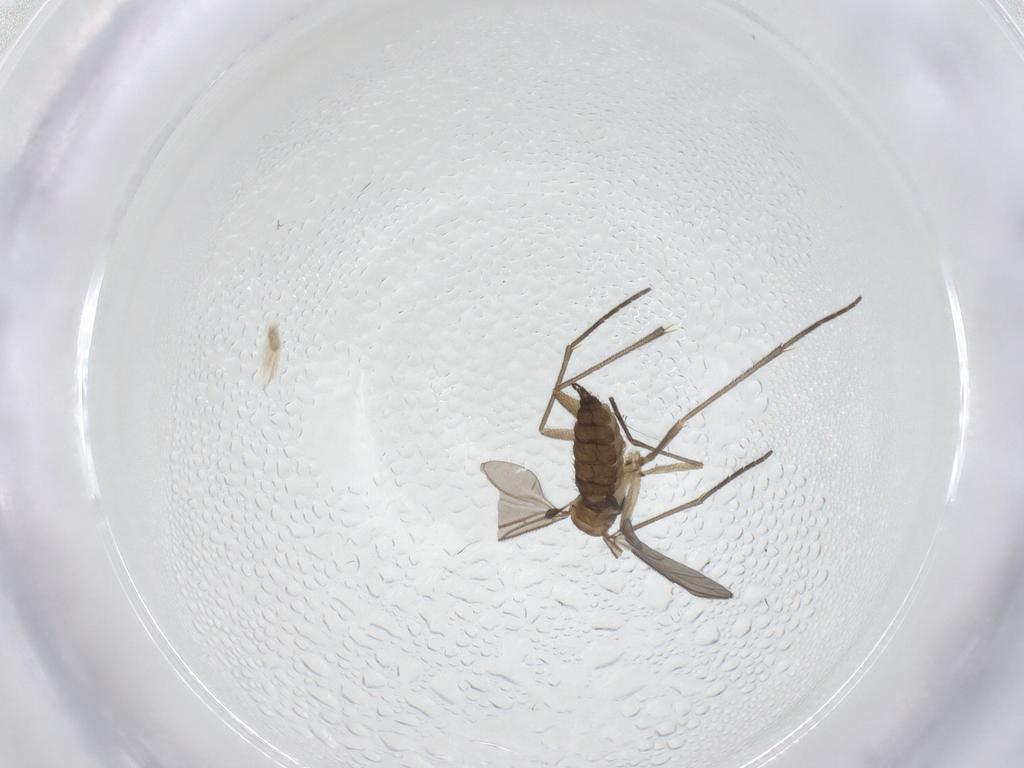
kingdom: Animalia
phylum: Arthropoda
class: Insecta
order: Diptera
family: Sciaridae
